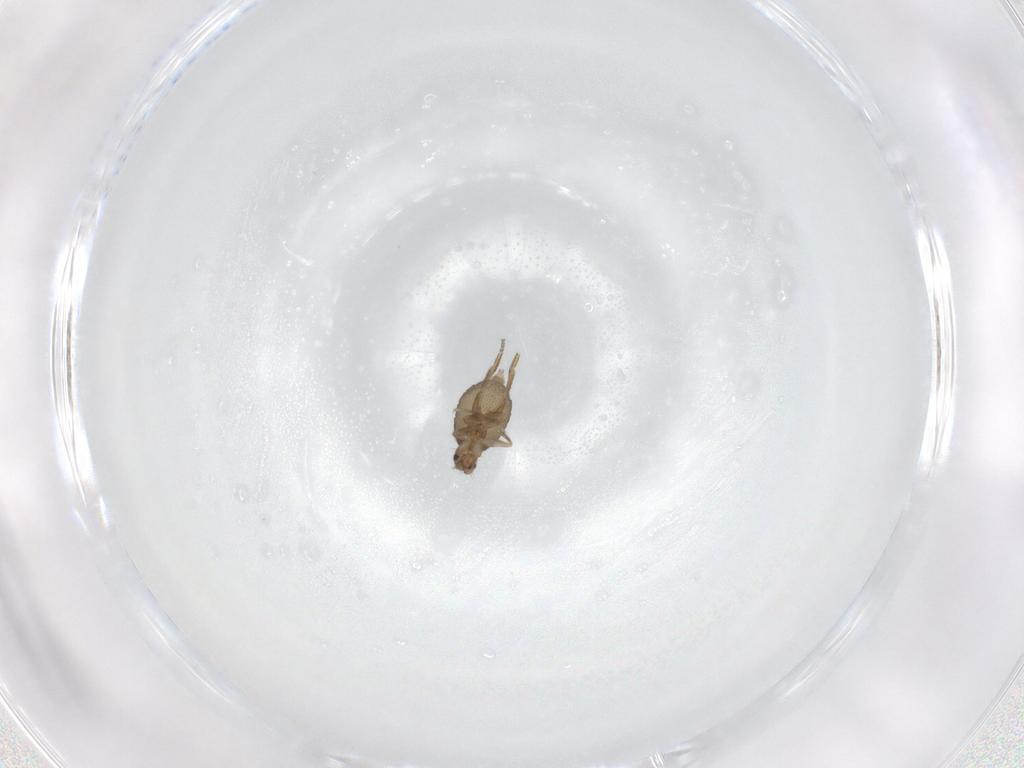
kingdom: Animalia
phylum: Arthropoda
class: Insecta
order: Diptera
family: Phoridae
